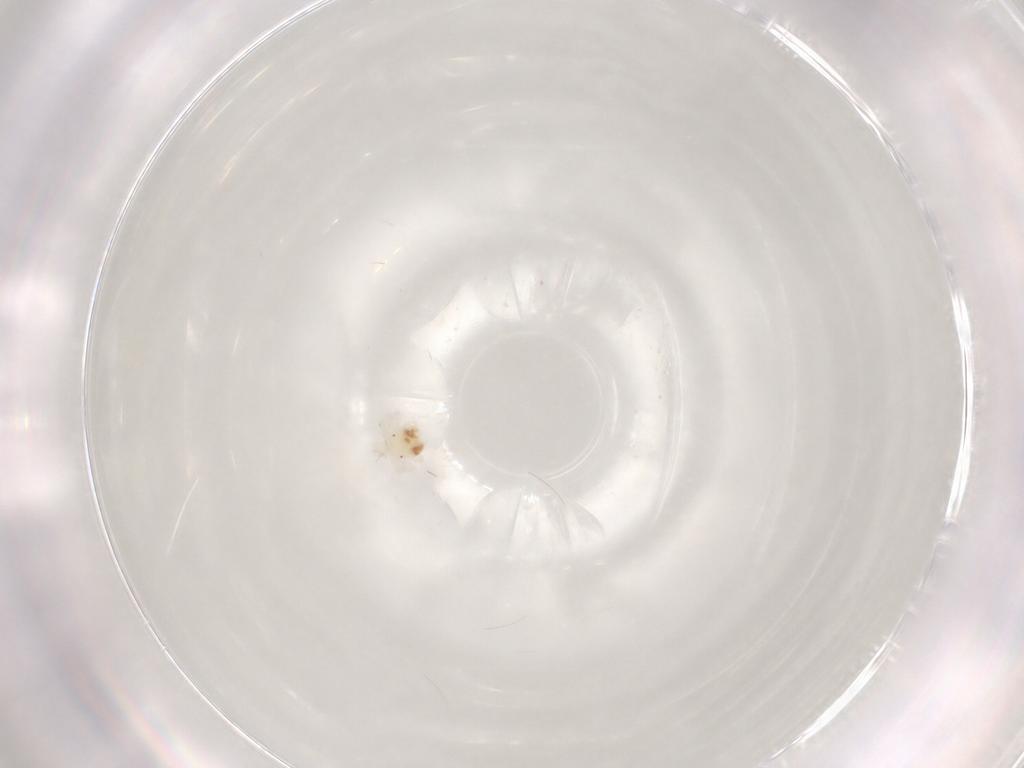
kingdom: Animalia
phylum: Arthropoda
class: Arachnida
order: Trombidiformes
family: Anystidae
